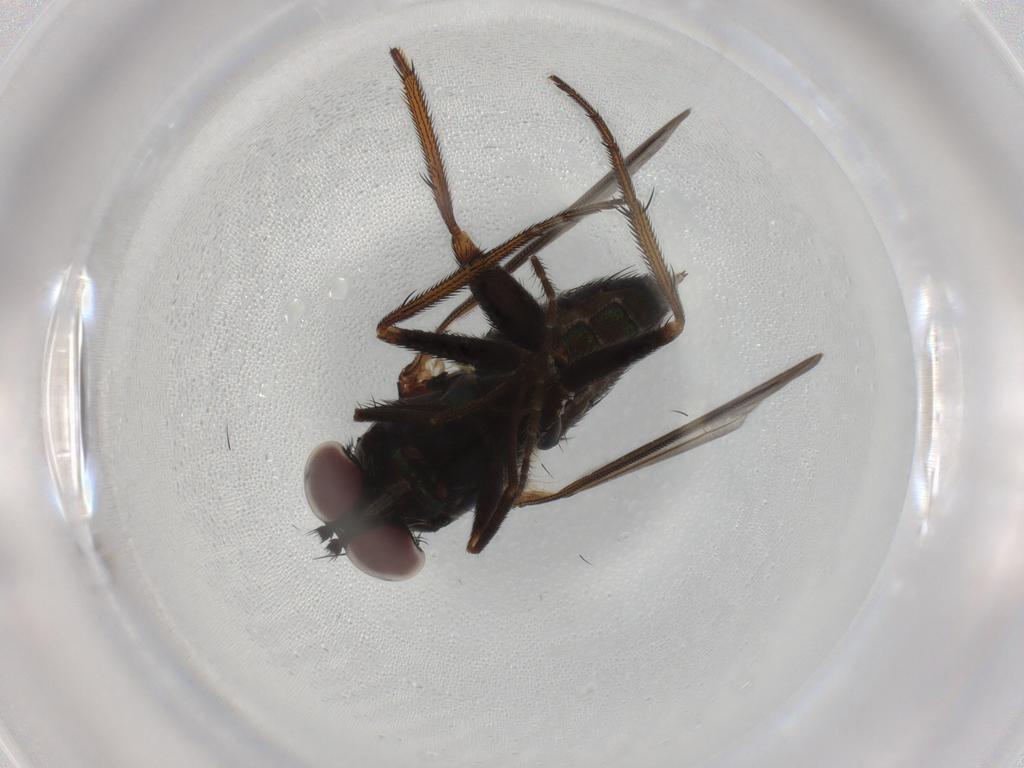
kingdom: Animalia
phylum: Arthropoda
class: Insecta
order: Diptera
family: Dolichopodidae
